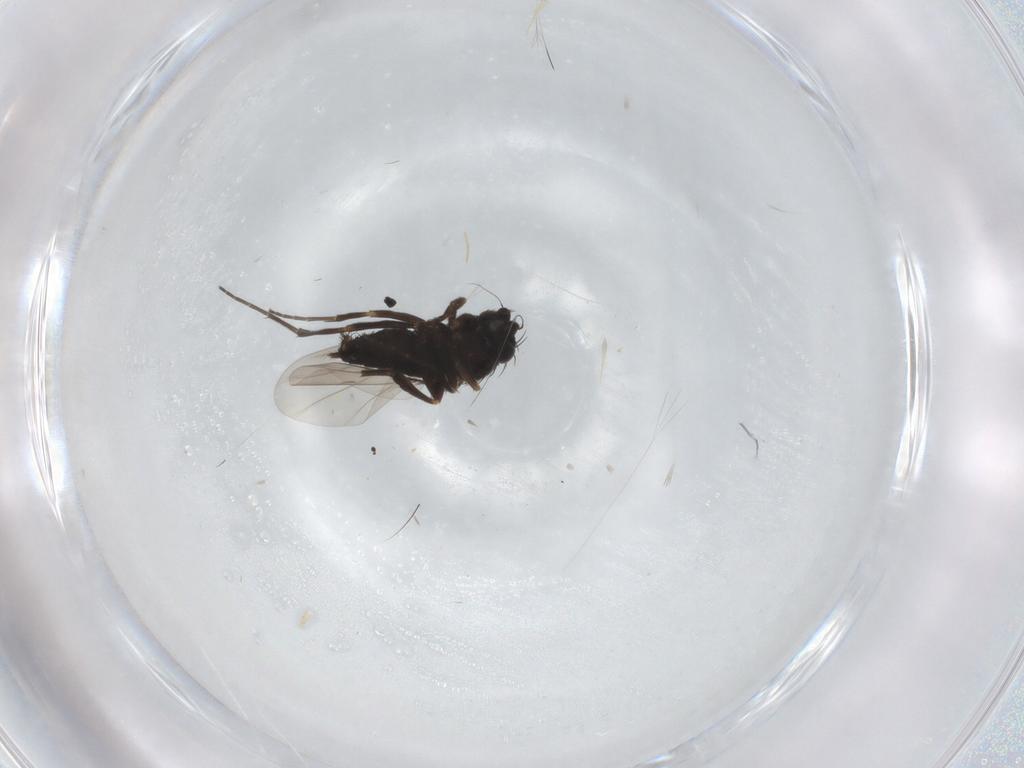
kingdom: Animalia
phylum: Arthropoda
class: Insecta
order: Diptera
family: Phoridae
